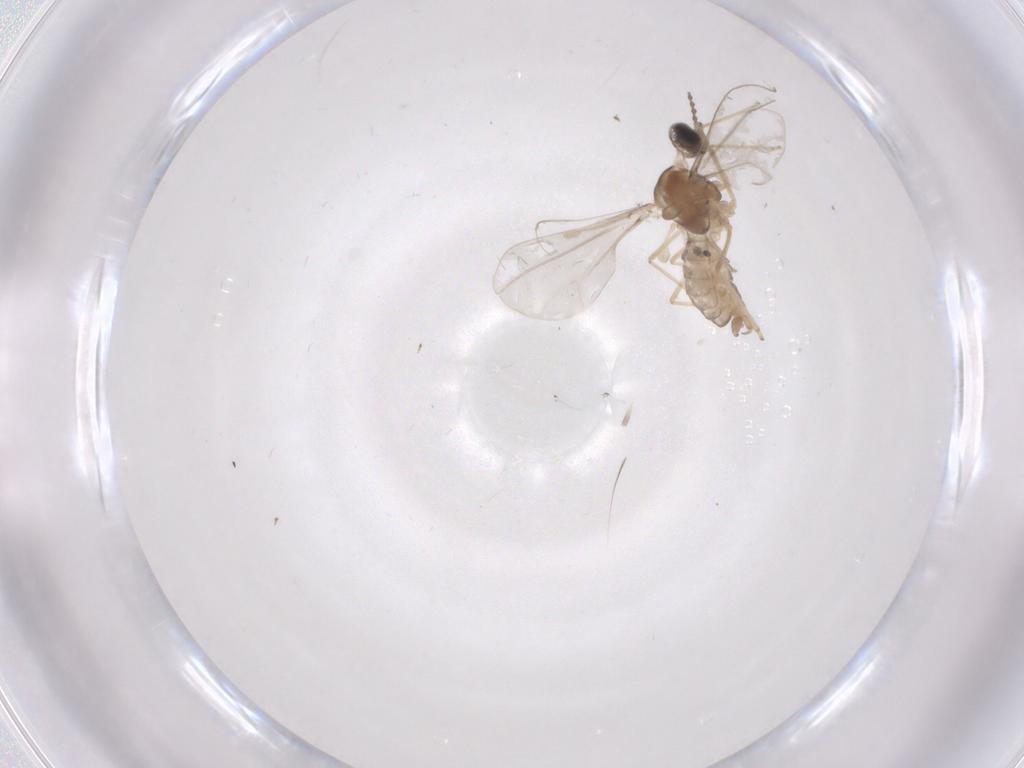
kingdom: Animalia
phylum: Arthropoda
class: Insecta
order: Diptera
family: Cecidomyiidae
